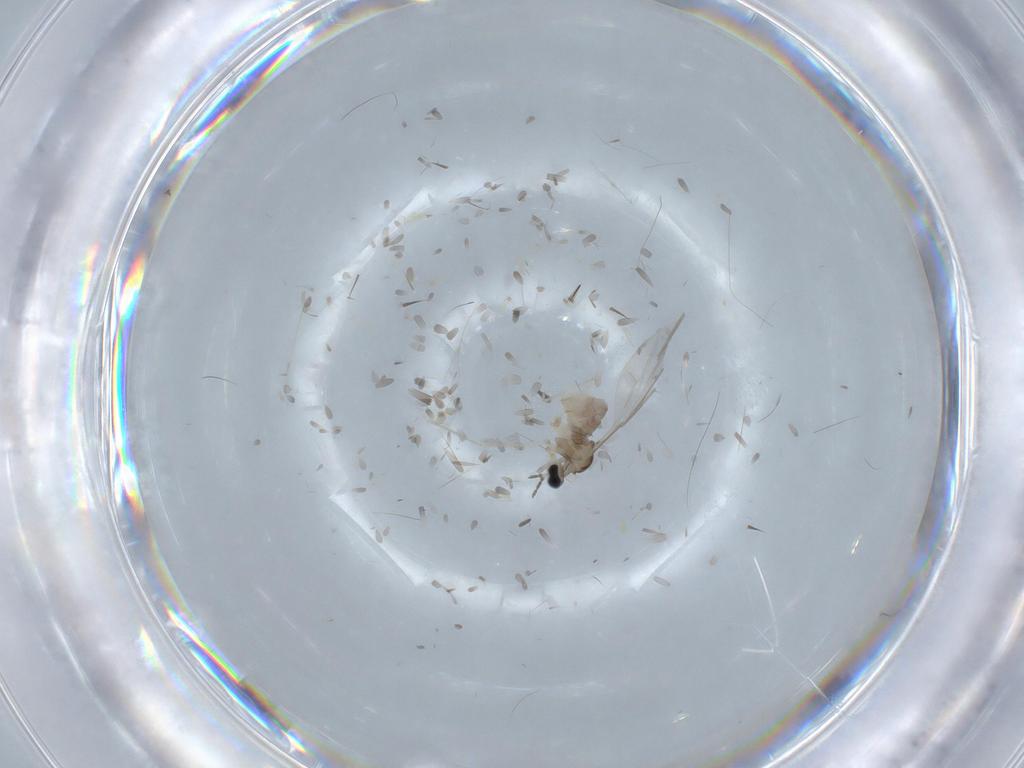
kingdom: Animalia
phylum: Arthropoda
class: Insecta
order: Diptera
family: Cecidomyiidae
